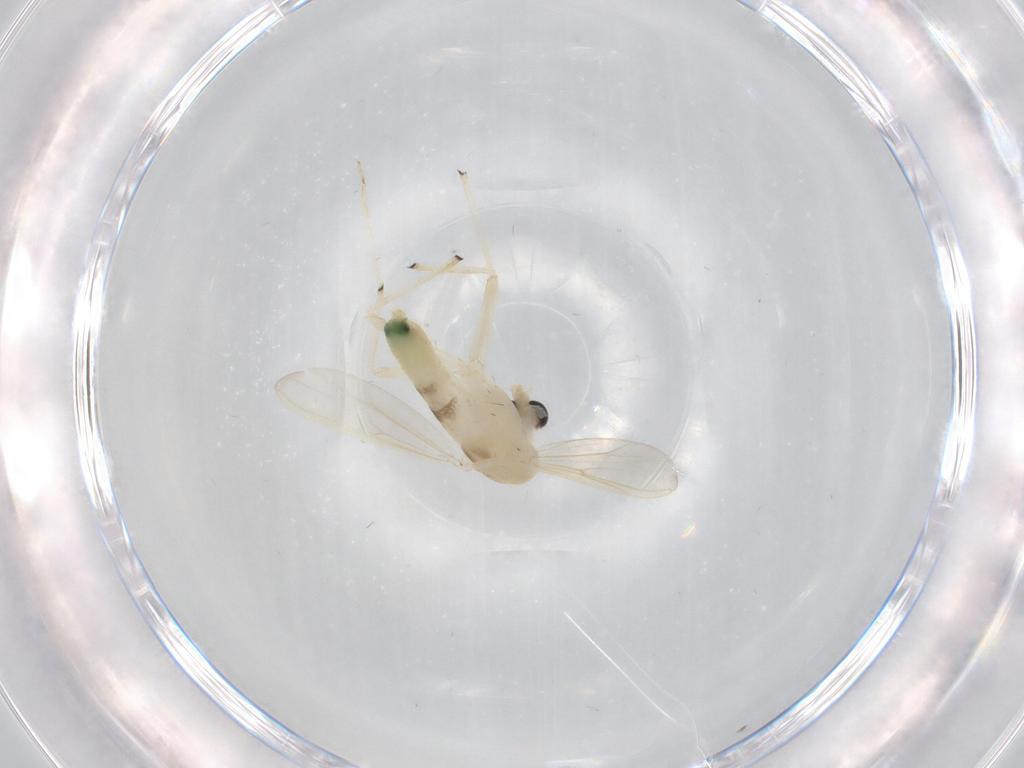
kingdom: Animalia
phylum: Arthropoda
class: Insecta
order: Diptera
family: Chironomidae
